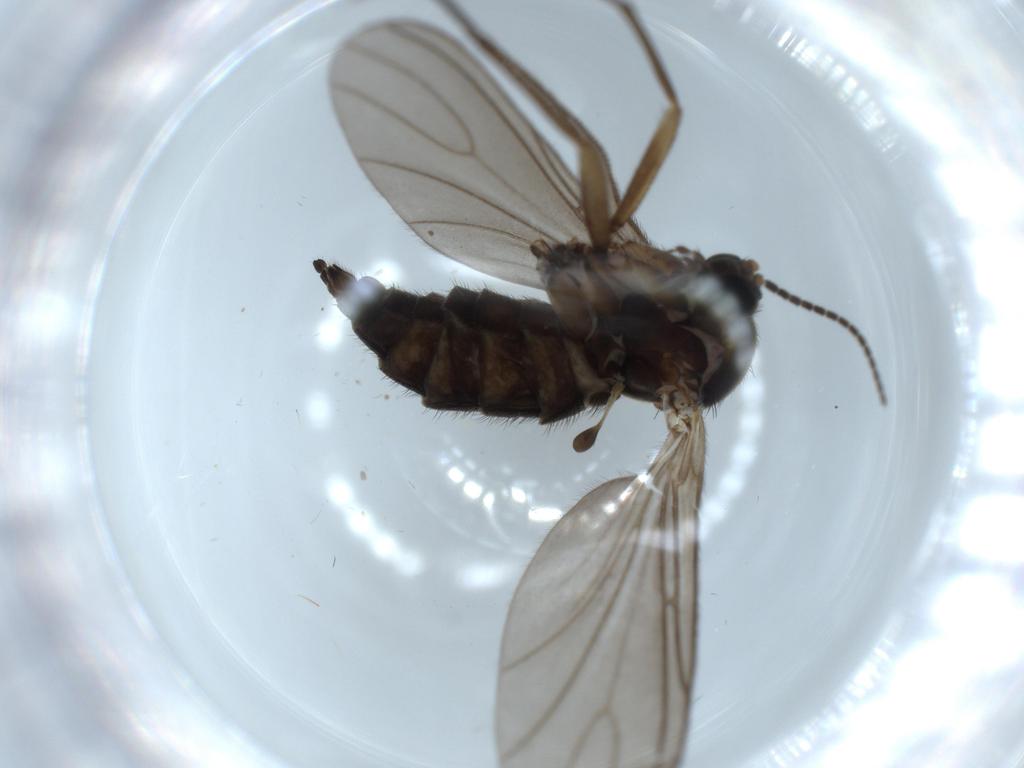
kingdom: Animalia
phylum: Arthropoda
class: Insecta
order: Diptera
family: Sciaridae
